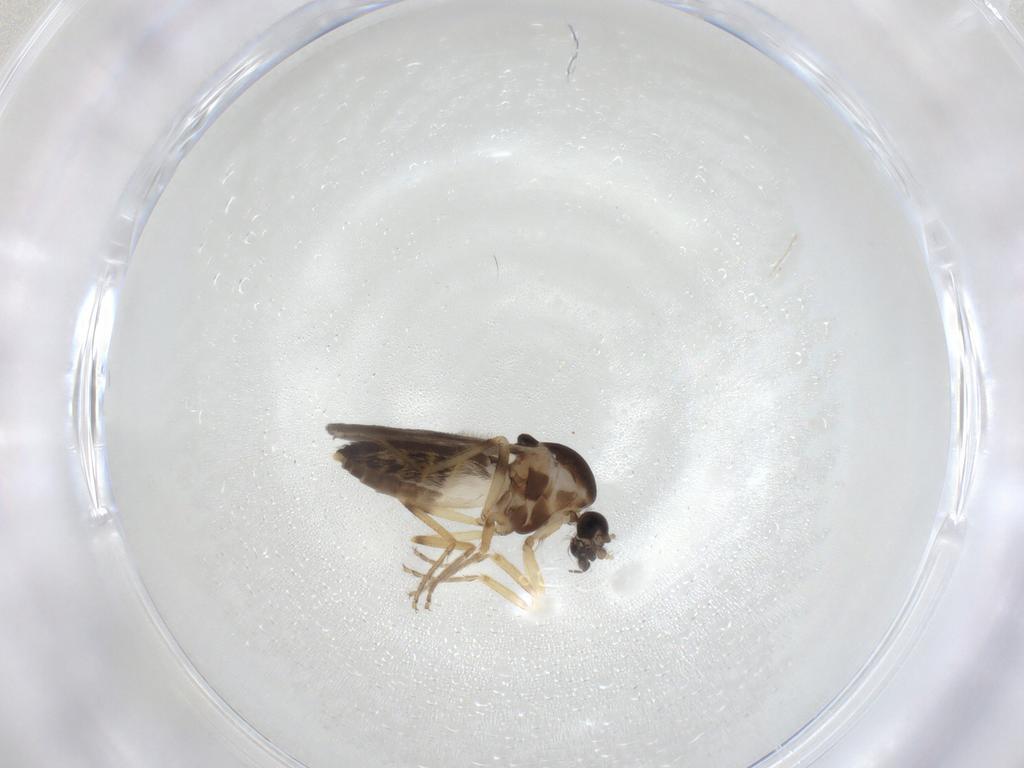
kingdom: Animalia
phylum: Arthropoda
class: Insecta
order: Diptera
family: Ceratopogonidae
